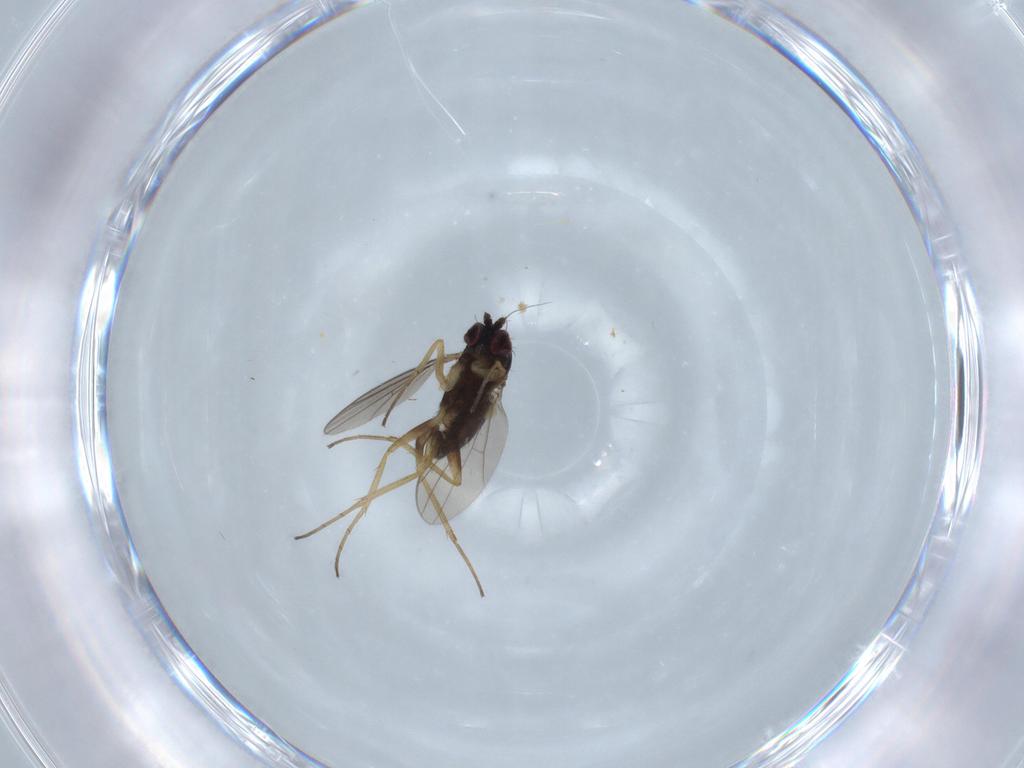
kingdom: Animalia
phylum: Arthropoda
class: Insecta
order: Diptera
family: Dolichopodidae
